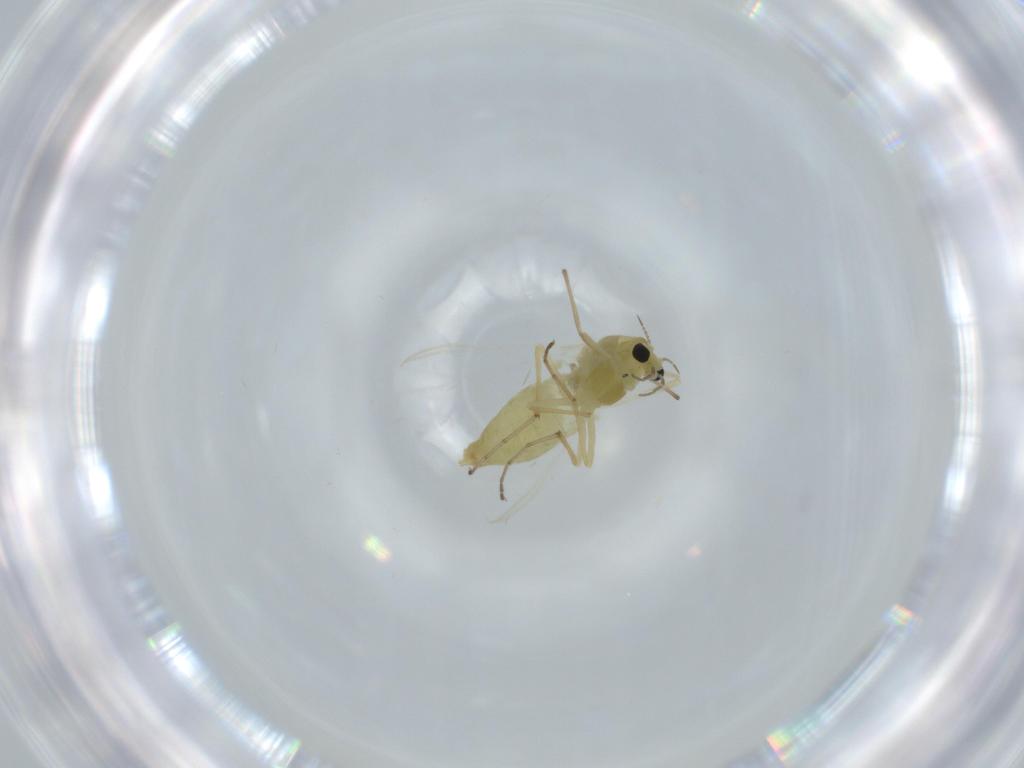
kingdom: Animalia
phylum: Arthropoda
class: Insecta
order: Diptera
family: Chironomidae
